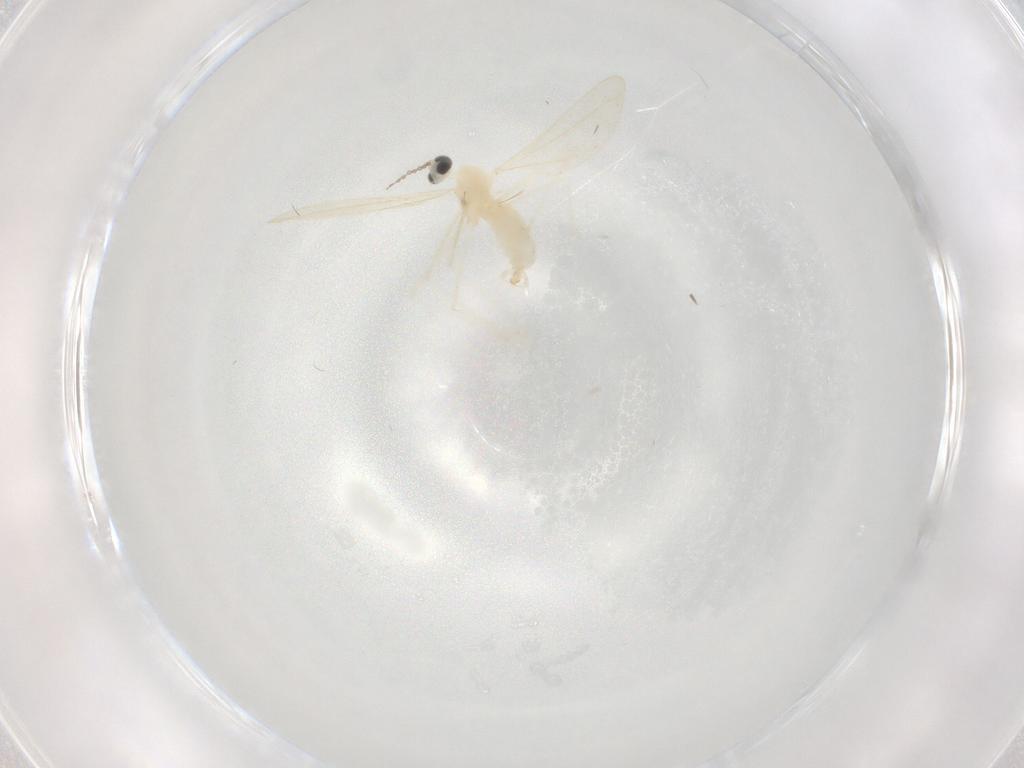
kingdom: Animalia
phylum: Arthropoda
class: Insecta
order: Diptera
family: Cecidomyiidae
